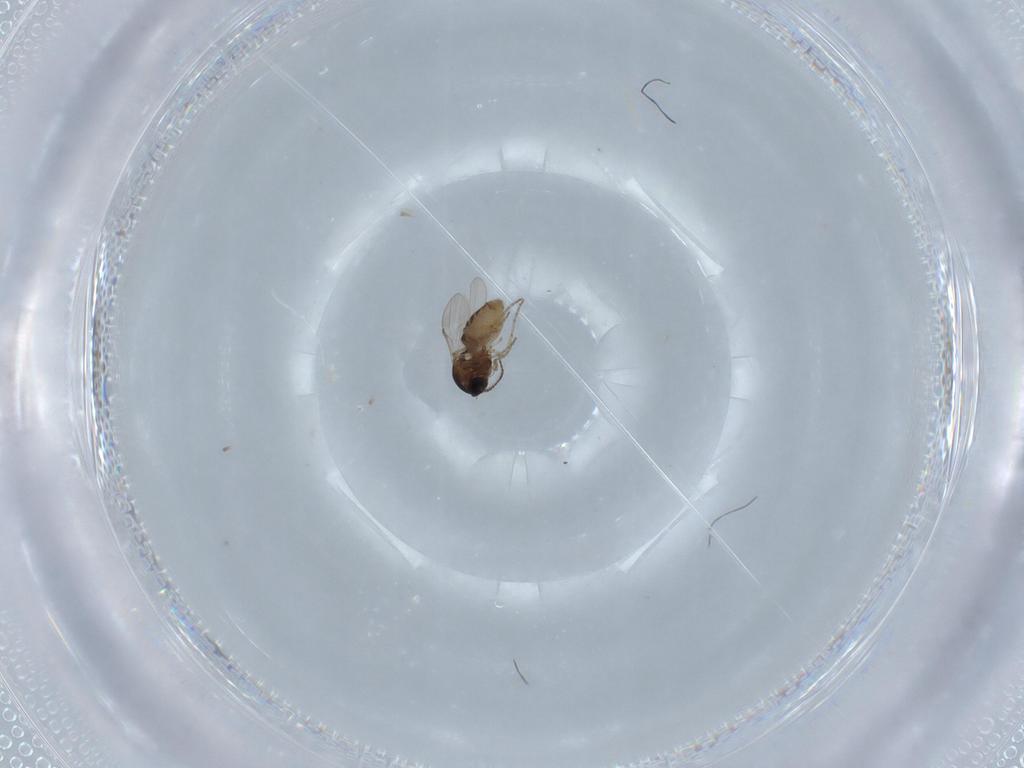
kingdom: Animalia
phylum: Arthropoda
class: Insecta
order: Diptera
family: Ceratopogonidae
